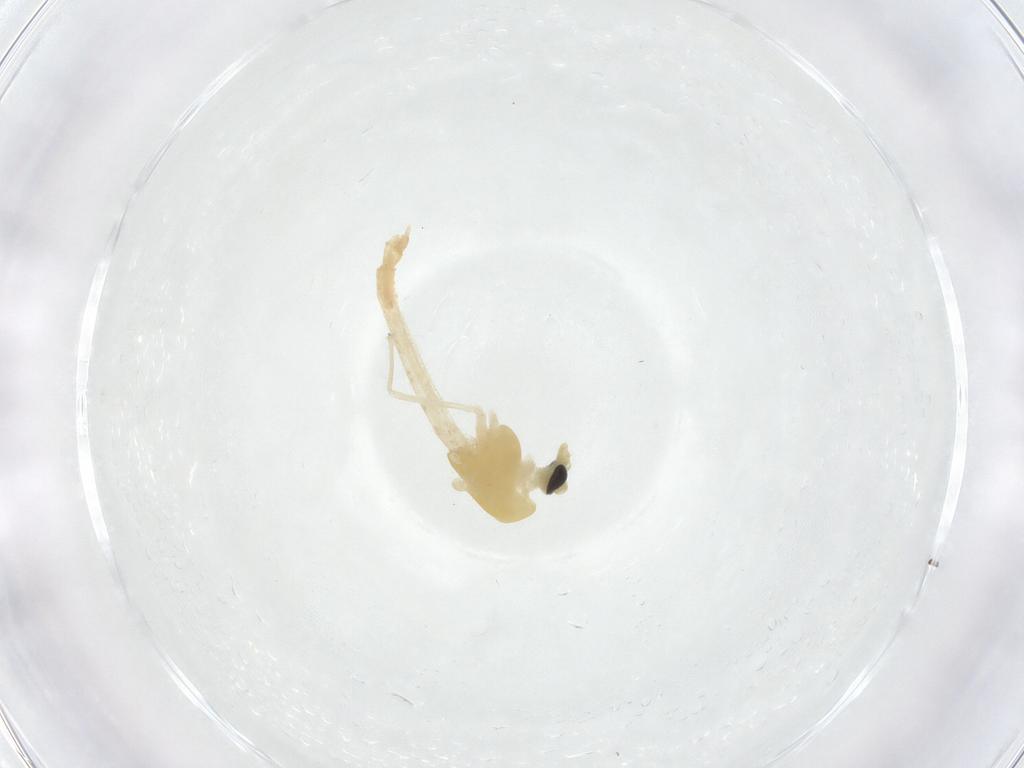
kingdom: Animalia
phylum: Arthropoda
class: Insecta
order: Diptera
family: Chironomidae
